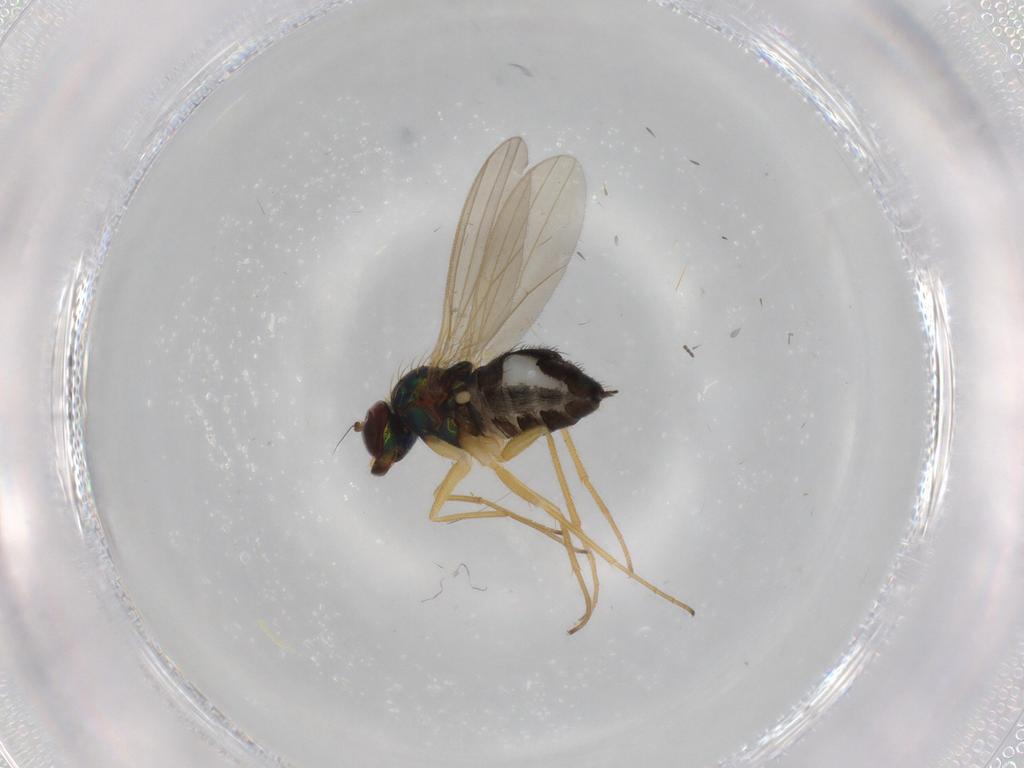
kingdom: Animalia
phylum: Arthropoda
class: Insecta
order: Diptera
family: Dolichopodidae
